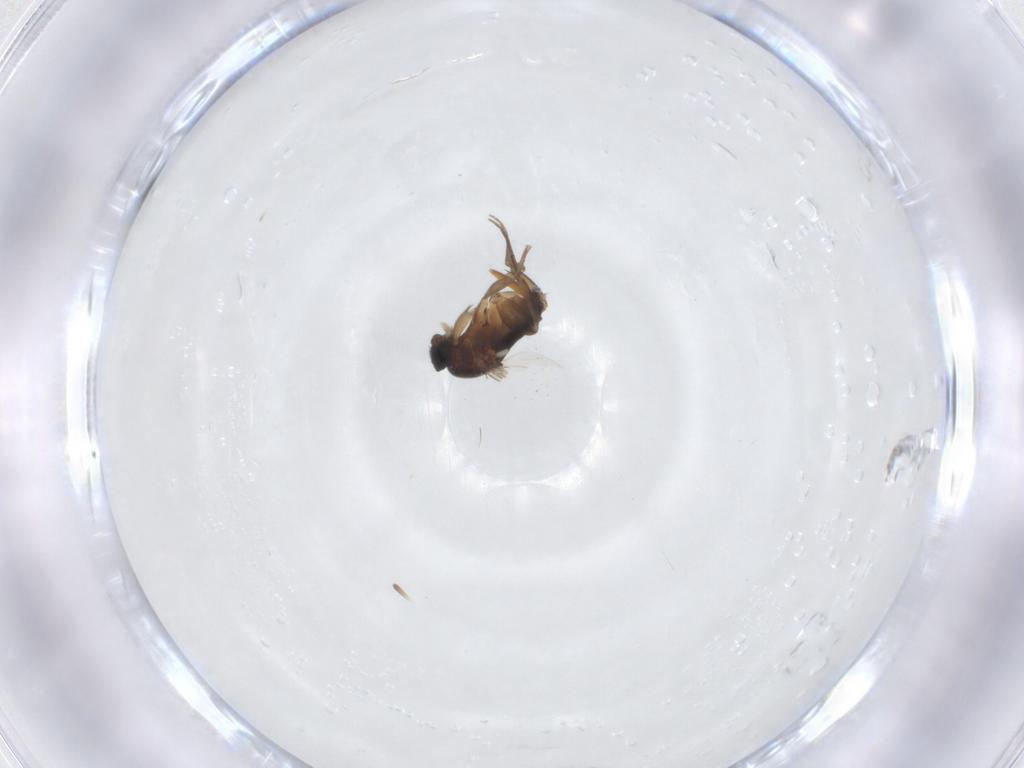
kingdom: Animalia
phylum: Arthropoda
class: Insecta
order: Diptera
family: Phoridae
